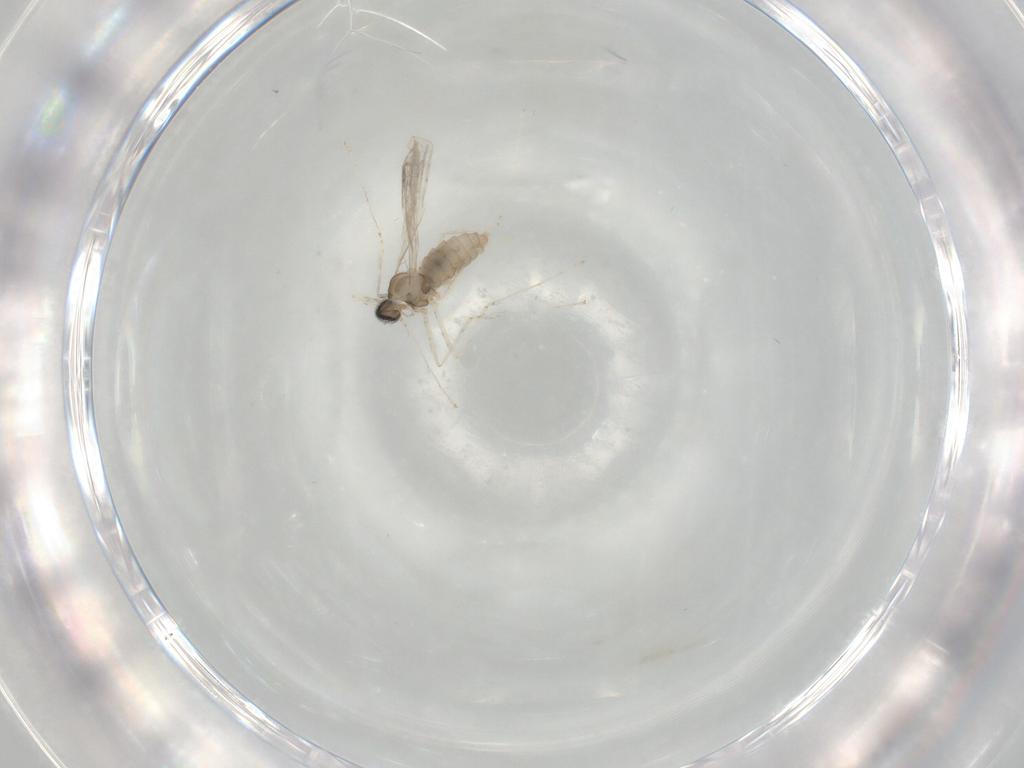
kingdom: Animalia
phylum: Arthropoda
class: Insecta
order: Diptera
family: Cecidomyiidae
